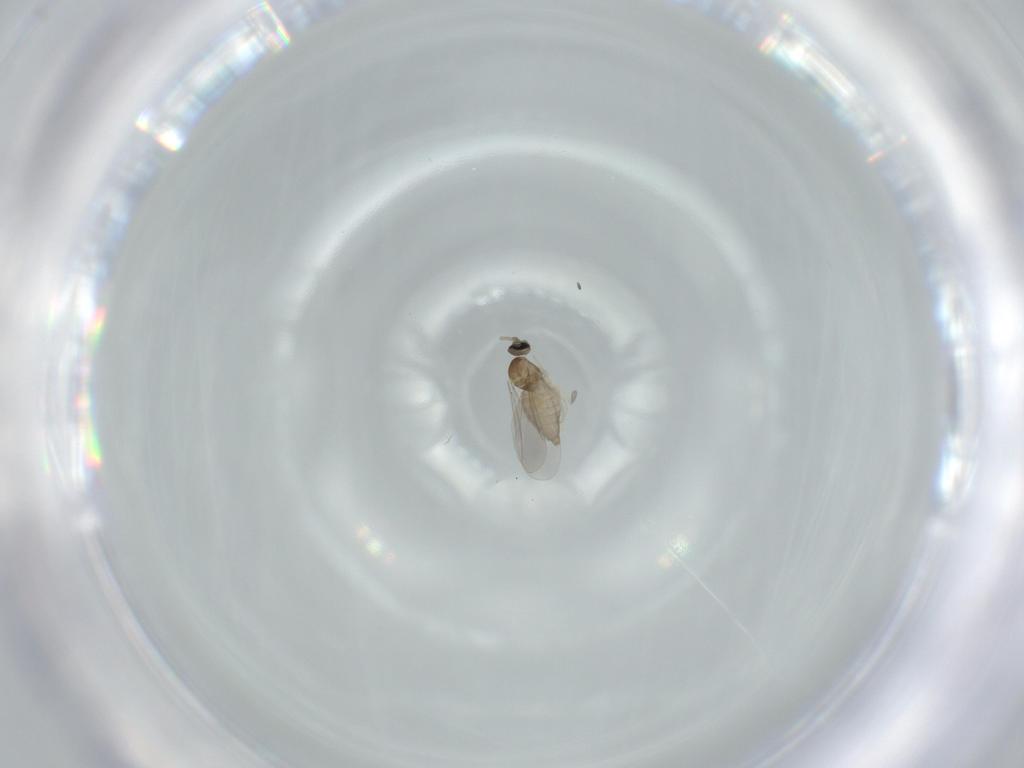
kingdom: Animalia
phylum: Arthropoda
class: Insecta
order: Diptera
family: Cecidomyiidae
